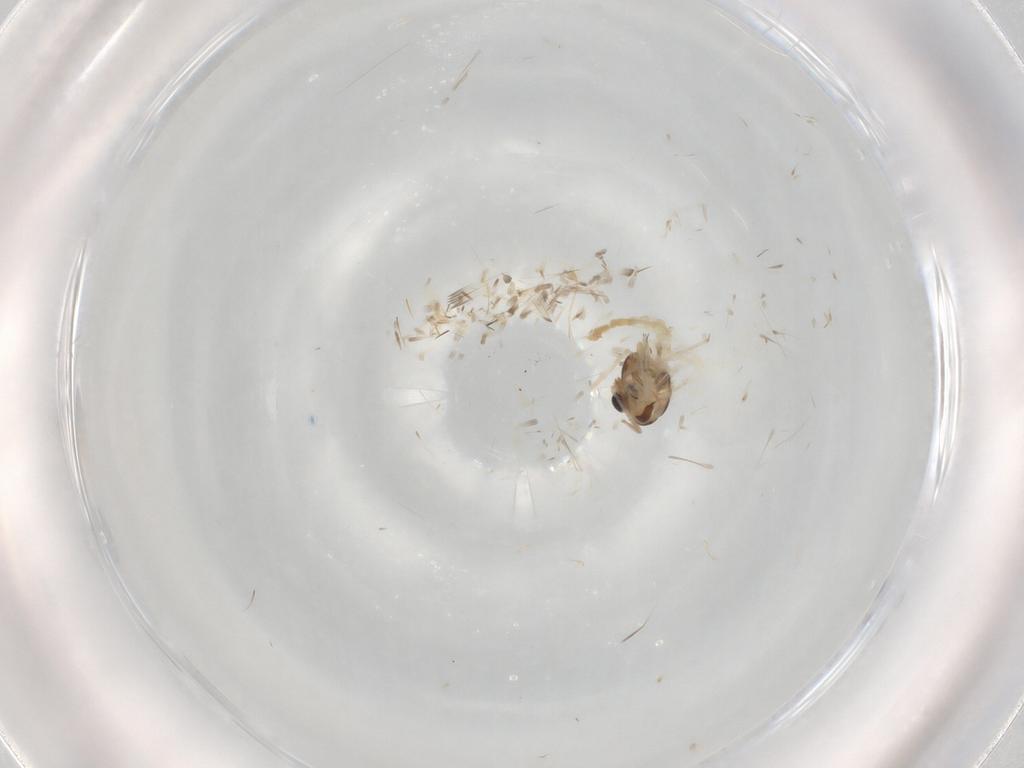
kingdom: Animalia
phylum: Arthropoda
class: Insecta
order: Diptera
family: Chironomidae
